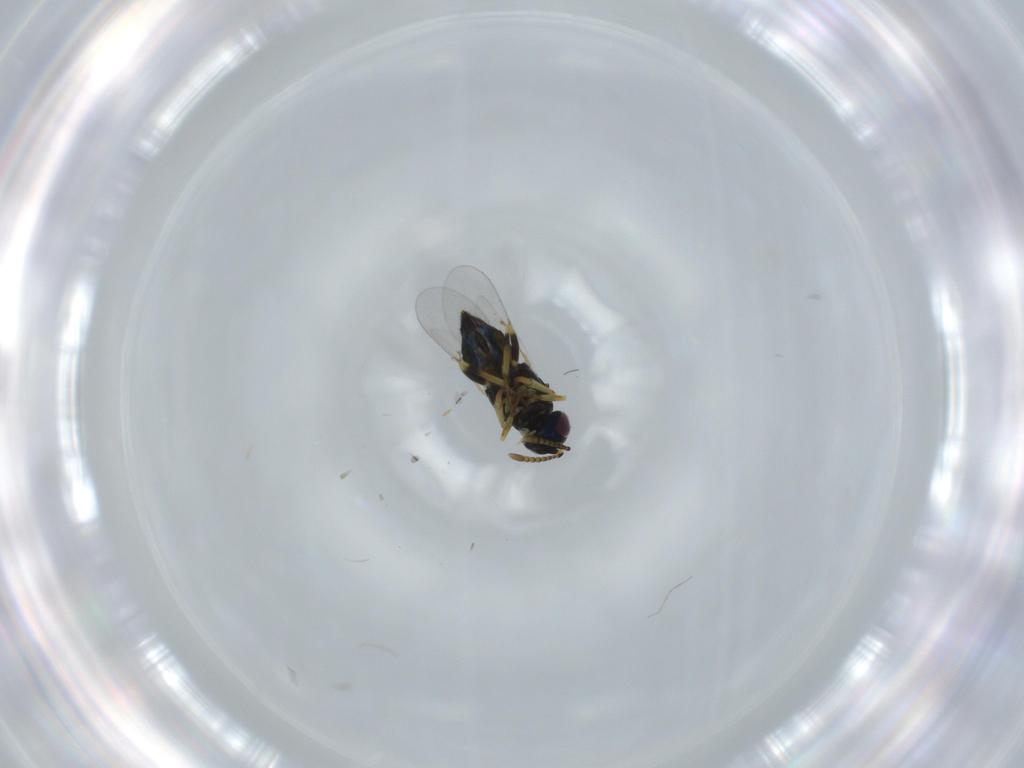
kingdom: Animalia
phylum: Arthropoda
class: Insecta
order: Hymenoptera
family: Formicidae
